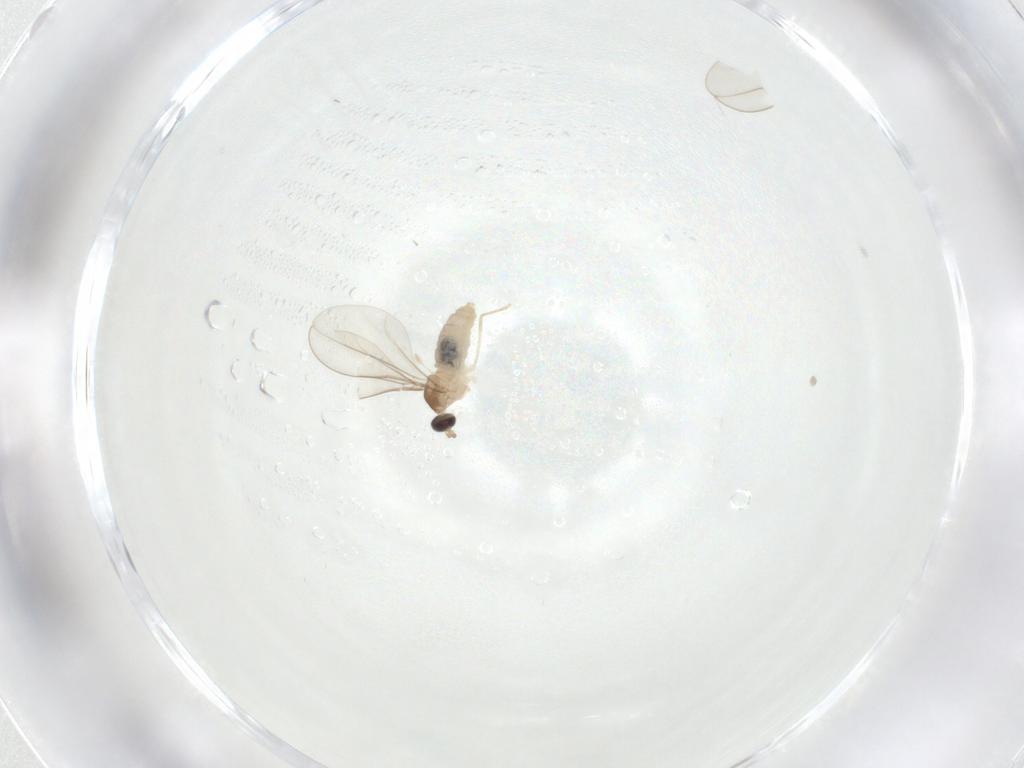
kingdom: Animalia
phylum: Arthropoda
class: Insecta
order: Diptera
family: Cecidomyiidae
